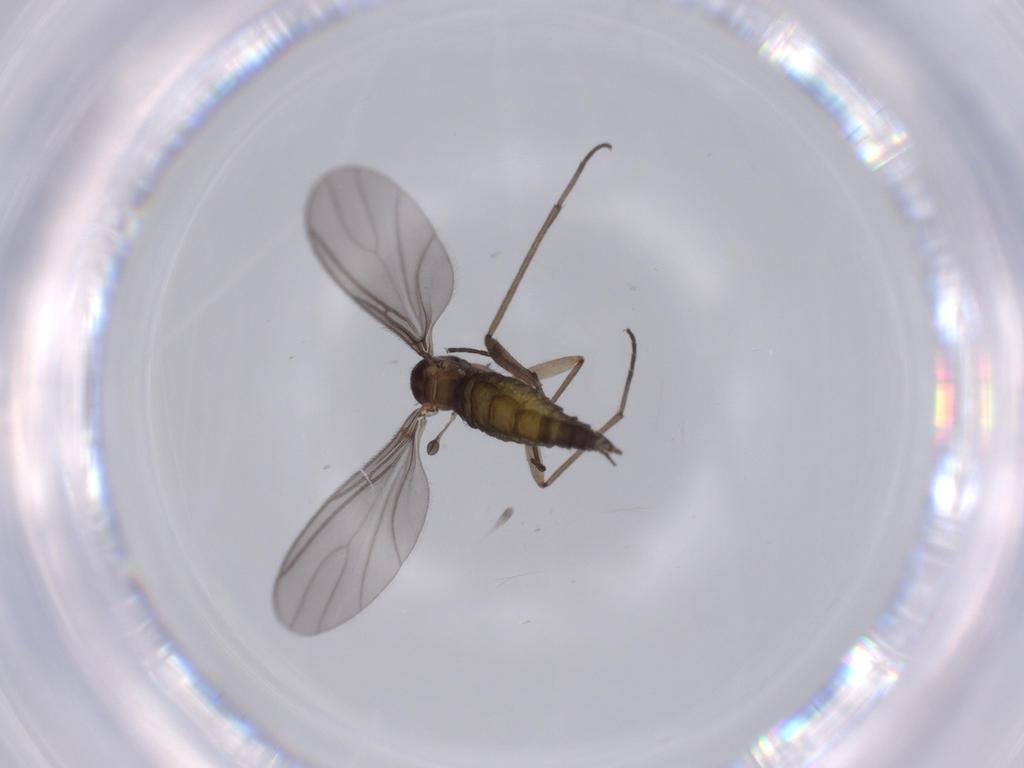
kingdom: Animalia
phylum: Arthropoda
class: Insecta
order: Diptera
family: Sciaridae
